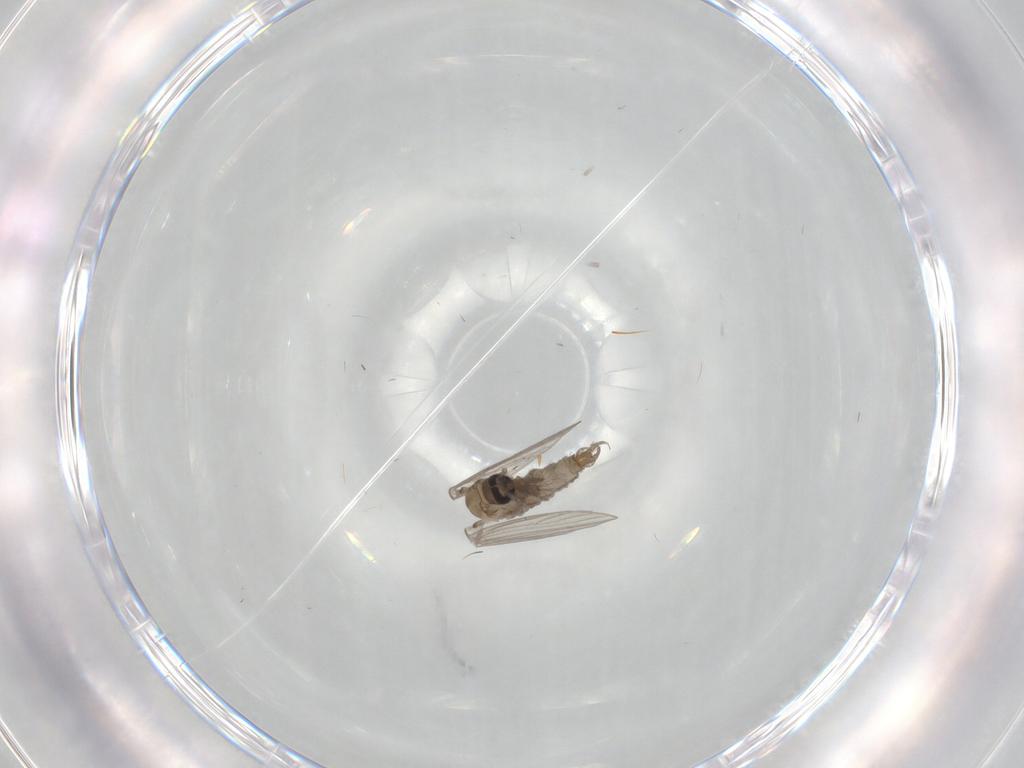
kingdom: Animalia
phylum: Arthropoda
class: Insecta
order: Diptera
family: Psychodidae
